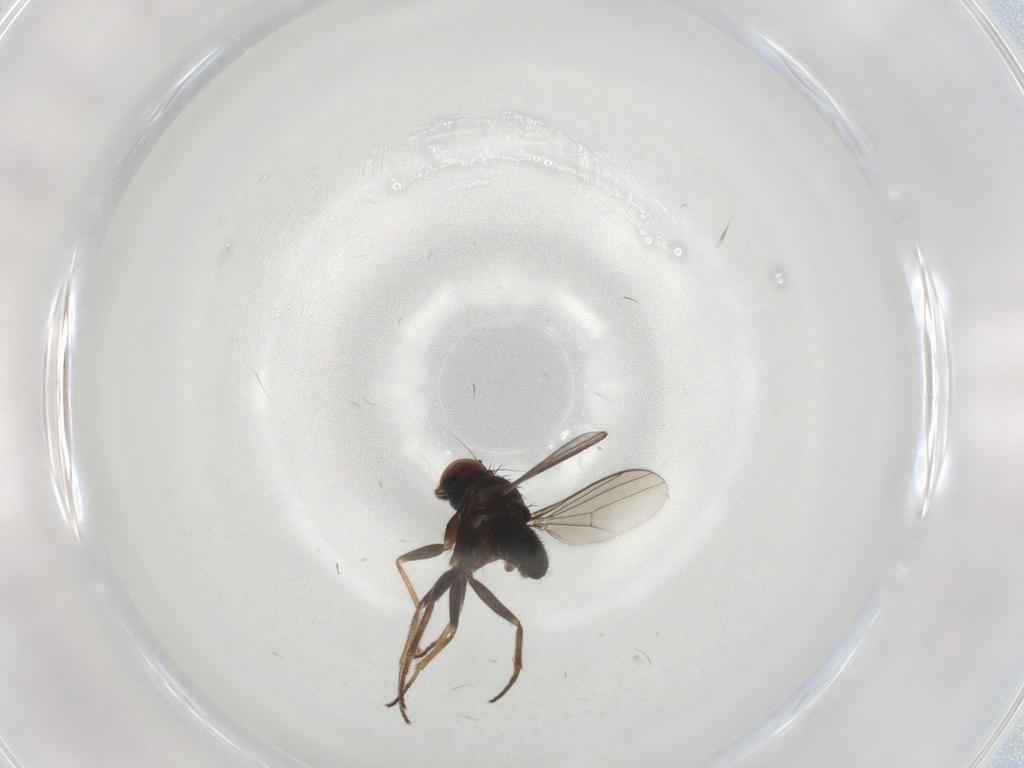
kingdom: Animalia
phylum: Arthropoda
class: Insecta
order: Diptera
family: Dolichopodidae
